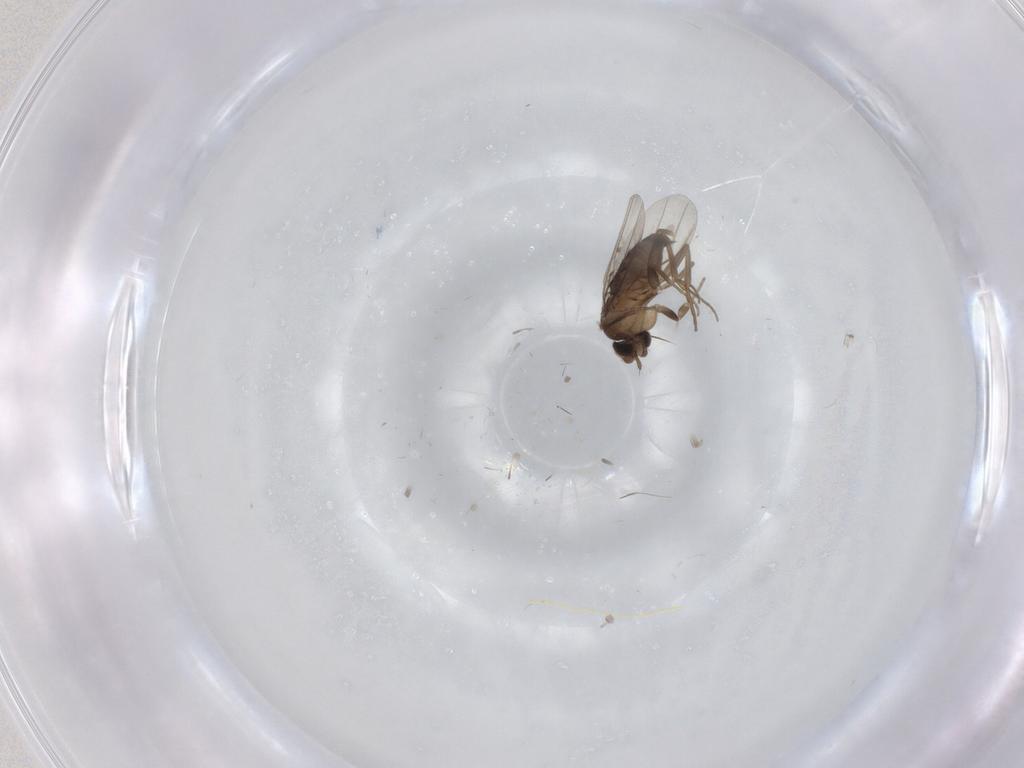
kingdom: Animalia
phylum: Arthropoda
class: Insecta
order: Diptera
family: Phoridae
